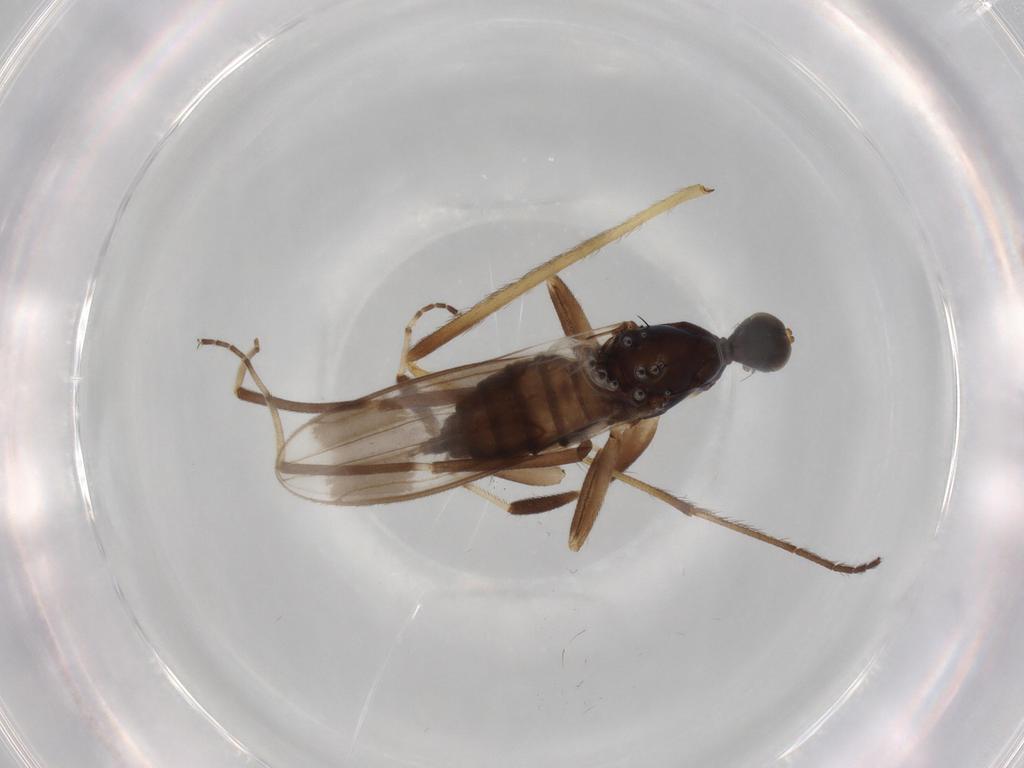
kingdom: Animalia
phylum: Arthropoda
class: Insecta
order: Diptera
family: Hybotidae
